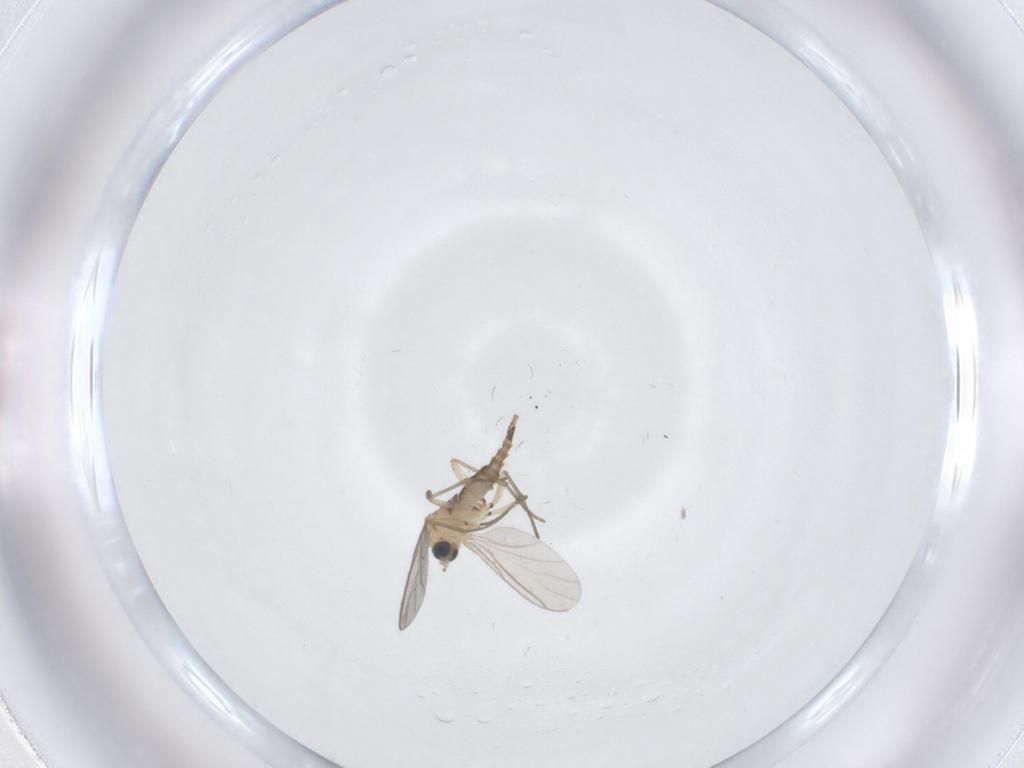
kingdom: Animalia
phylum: Arthropoda
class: Insecta
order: Diptera
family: Sciaridae
